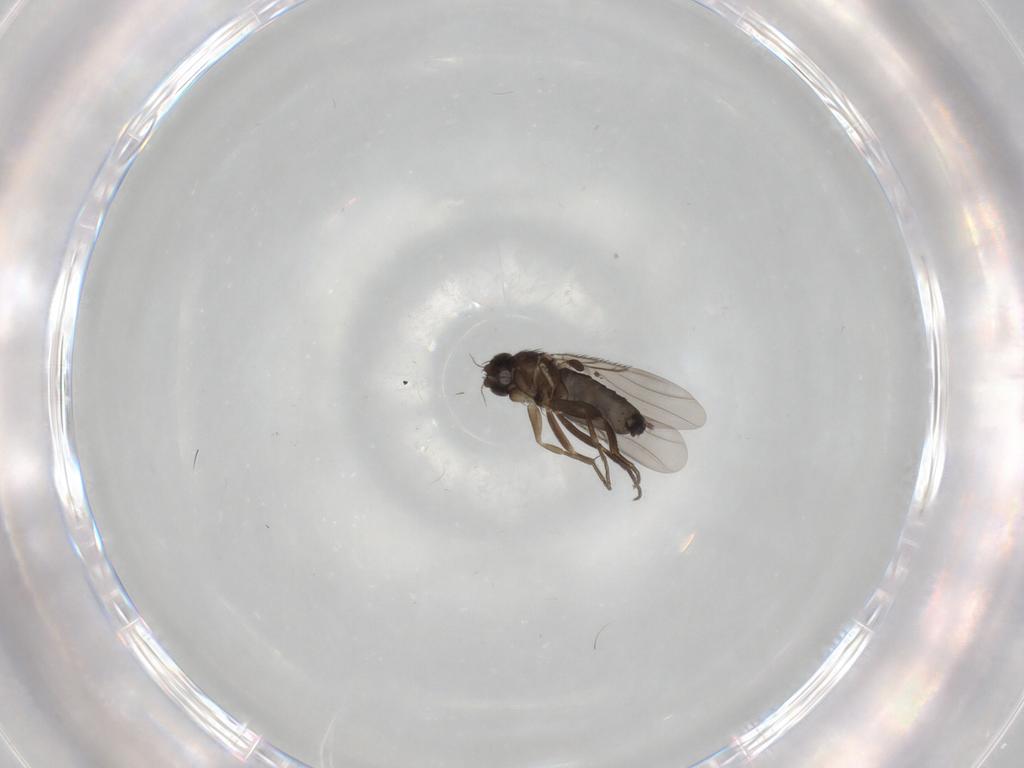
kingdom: Animalia
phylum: Arthropoda
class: Insecta
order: Diptera
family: Phoridae
